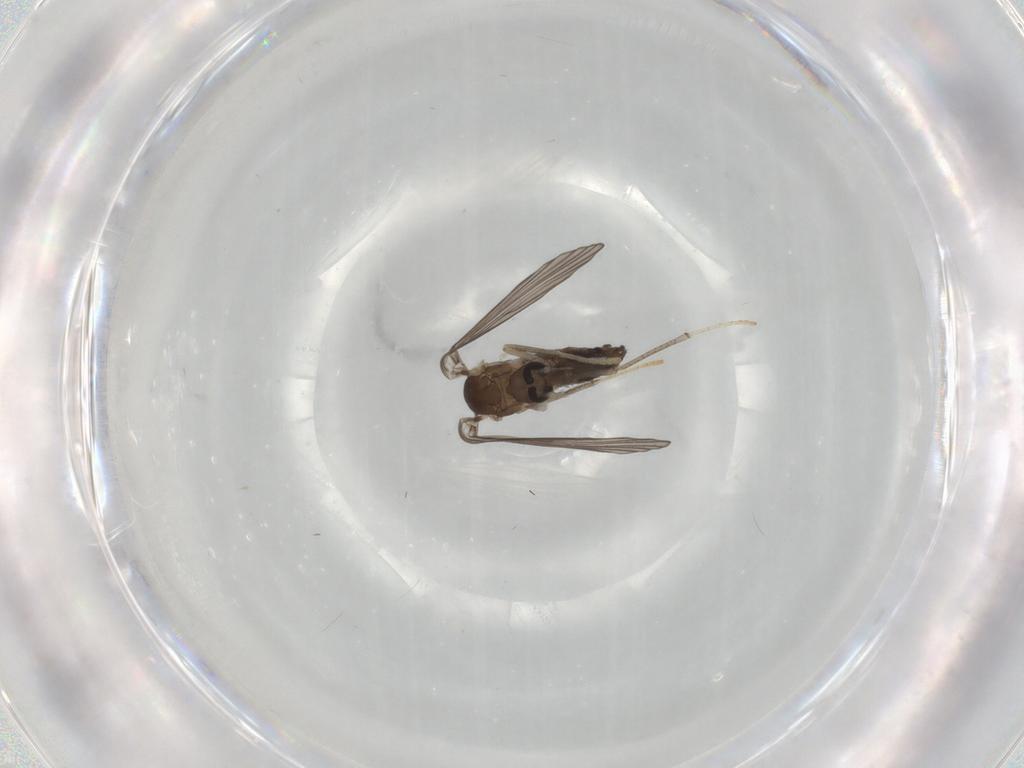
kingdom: Animalia
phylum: Arthropoda
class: Insecta
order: Diptera
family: Psychodidae
